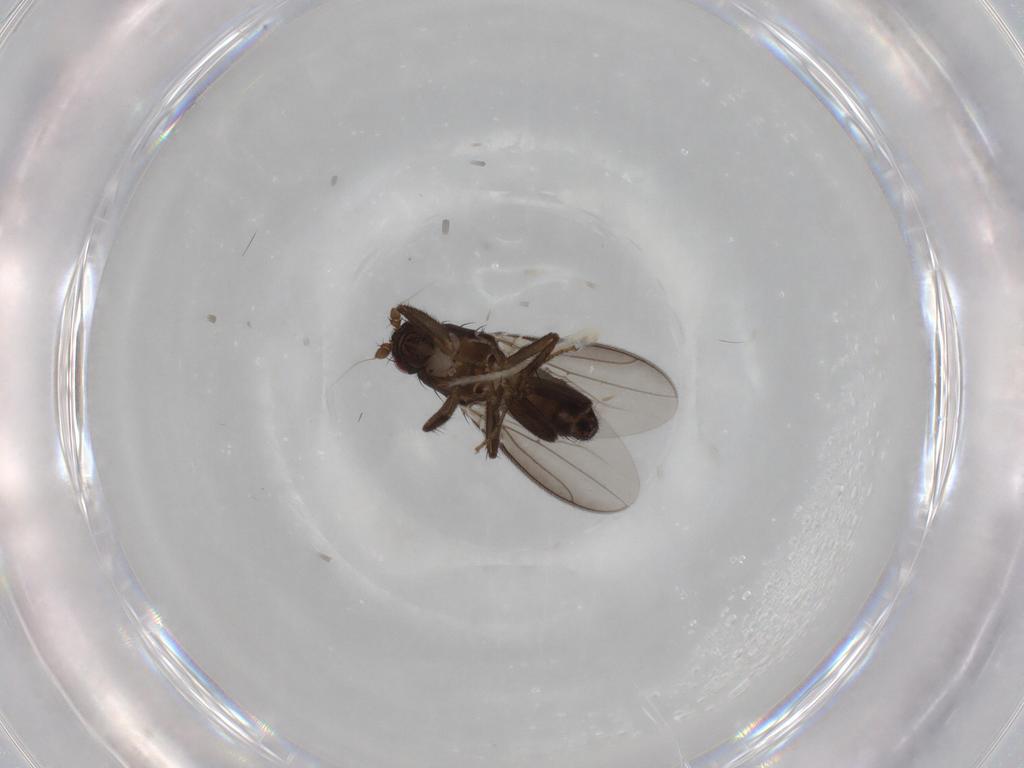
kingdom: Animalia
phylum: Arthropoda
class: Insecta
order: Diptera
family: Sphaeroceridae
